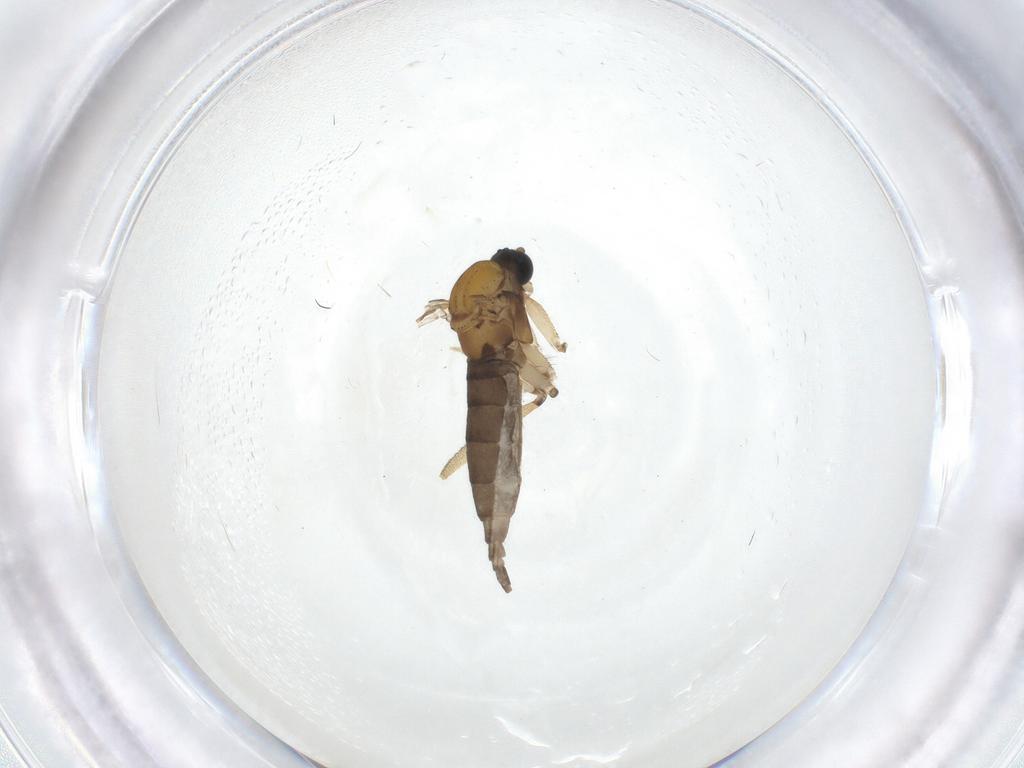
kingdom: Animalia
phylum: Arthropoda
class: Insecta
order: Diptera
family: Sciaridae
